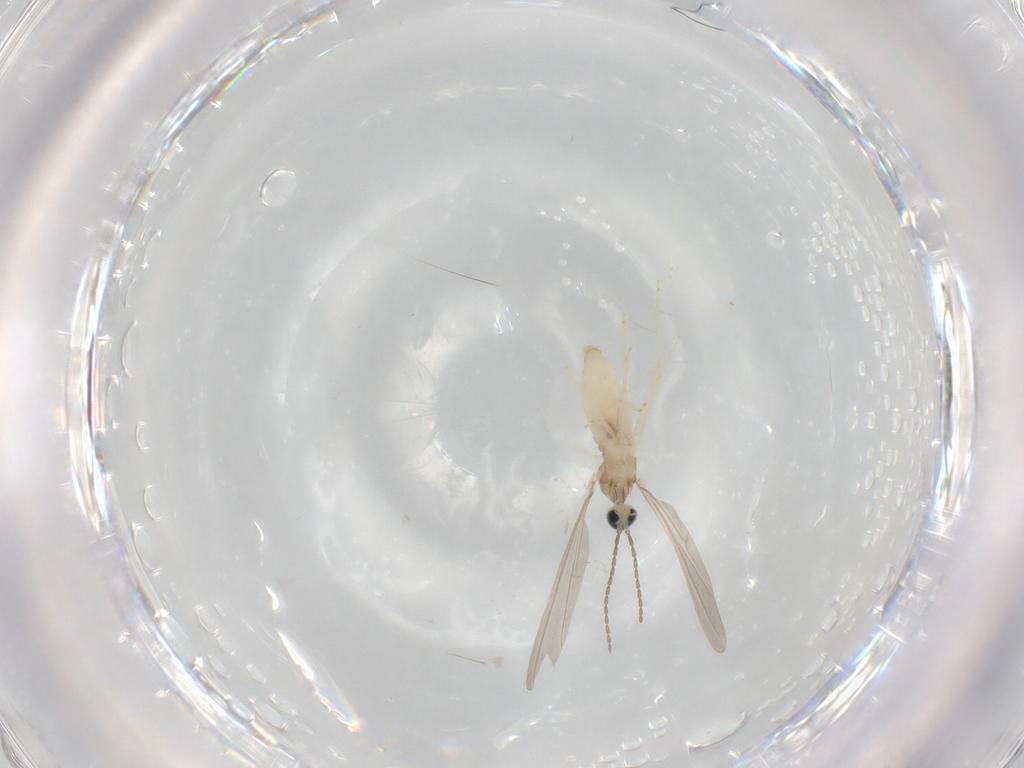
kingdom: Animalia
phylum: Arthropoda
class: Insecta
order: Diptera
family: Cecidomyiidae
